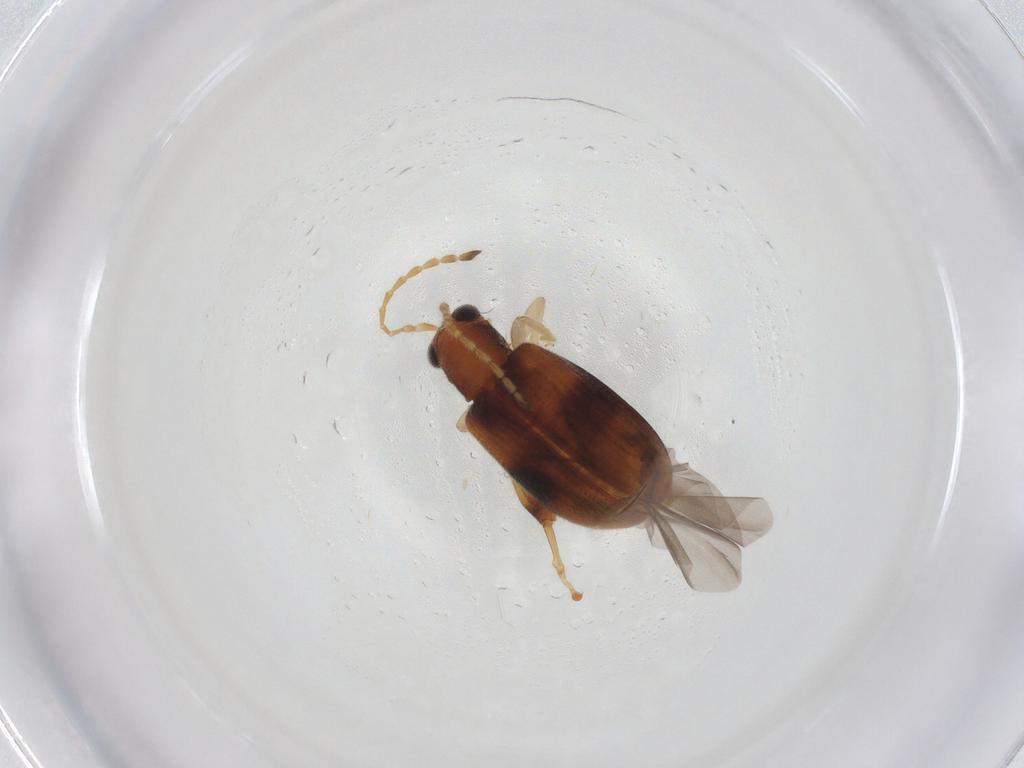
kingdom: Animalia
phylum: Arthropoda
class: Insecta
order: Coleoptera
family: Chrysomelidae
